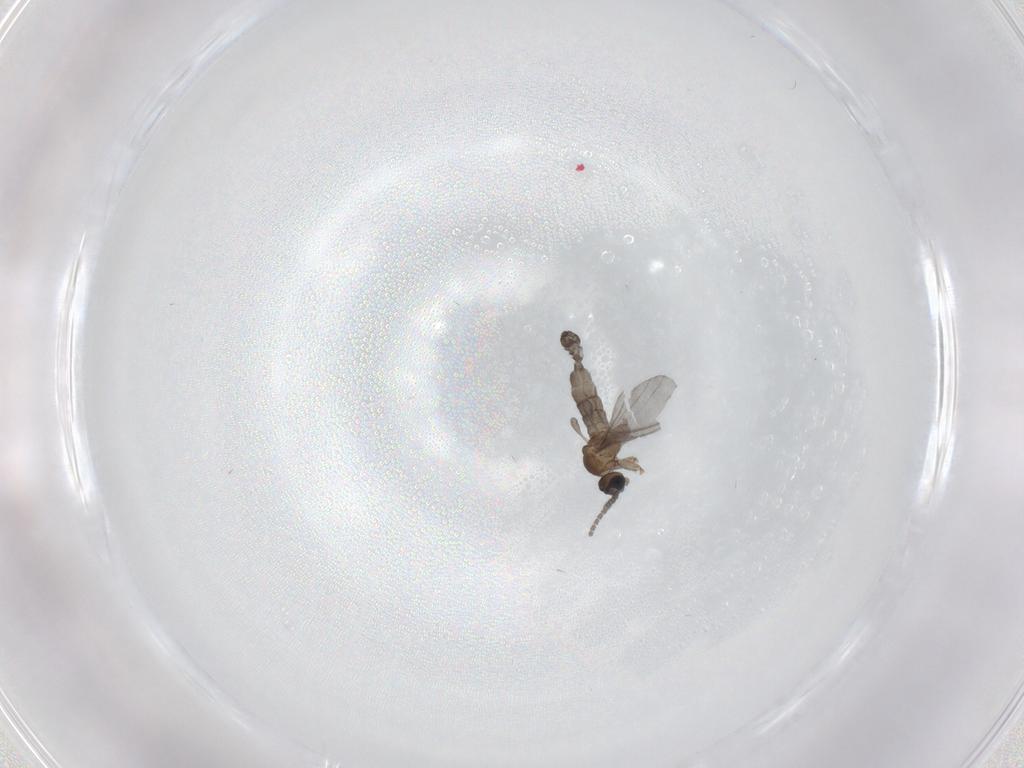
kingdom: Animalia
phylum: Arthropoda
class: Insecta
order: Diptera
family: Sciaridae
